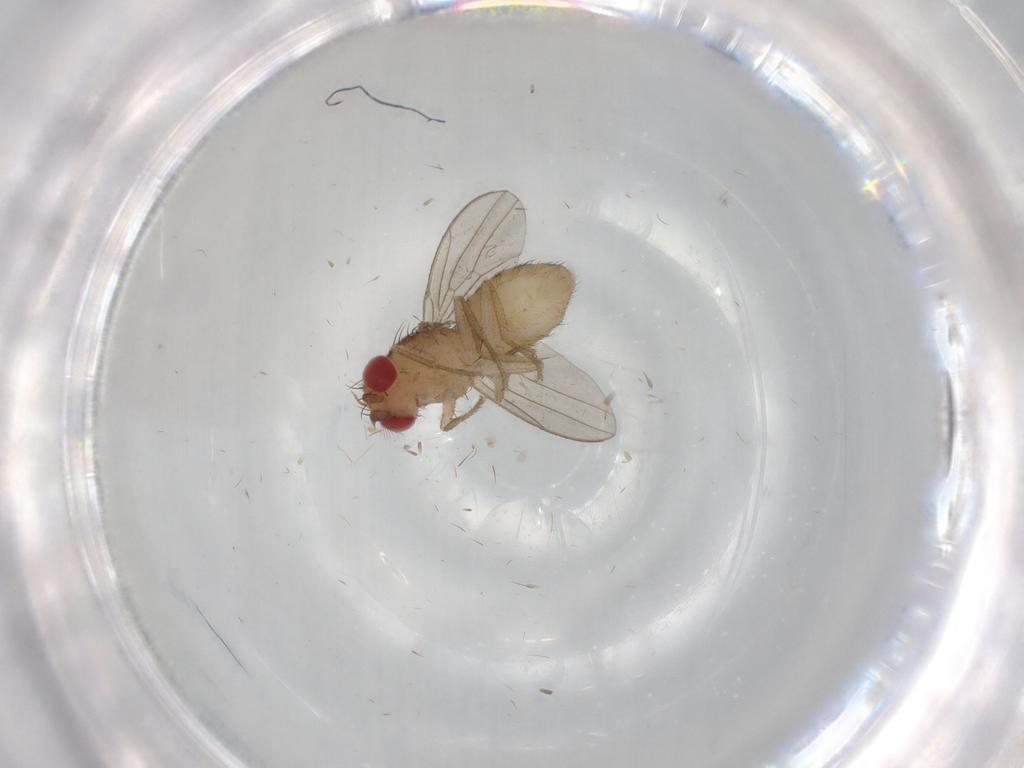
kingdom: Animalia
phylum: Arthropoda
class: Insecta
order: Diptera
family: Drosophilidae
